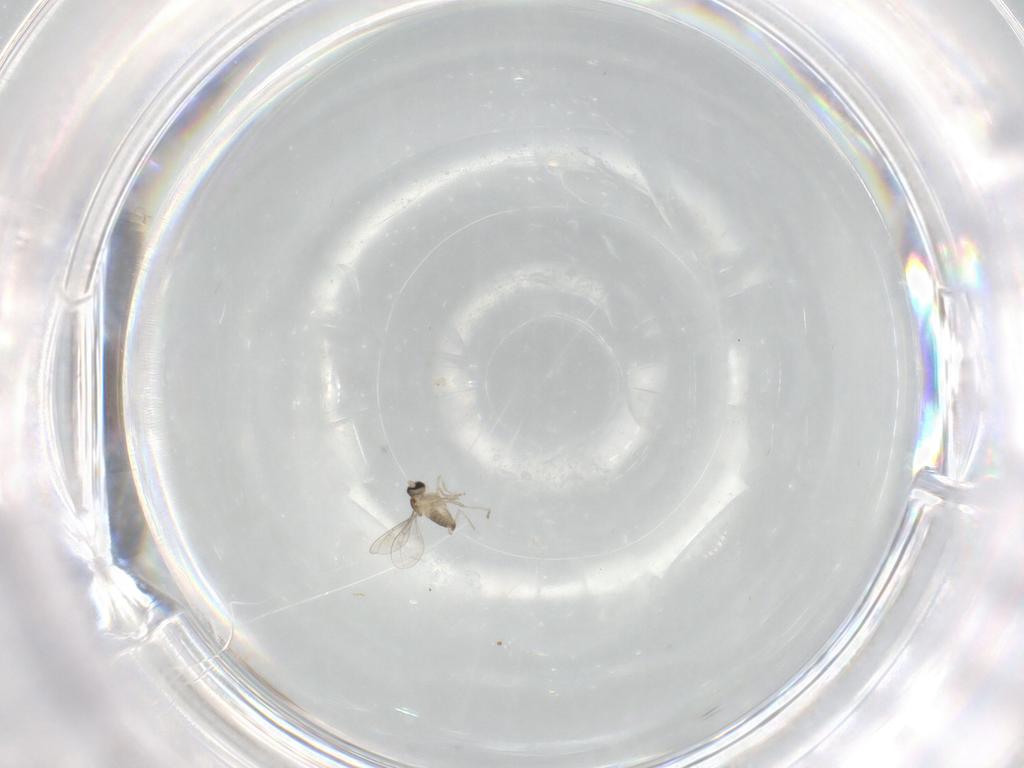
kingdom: Animalia
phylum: Arthropoda
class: Insecta
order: Diptera
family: Cecidomyiidae
